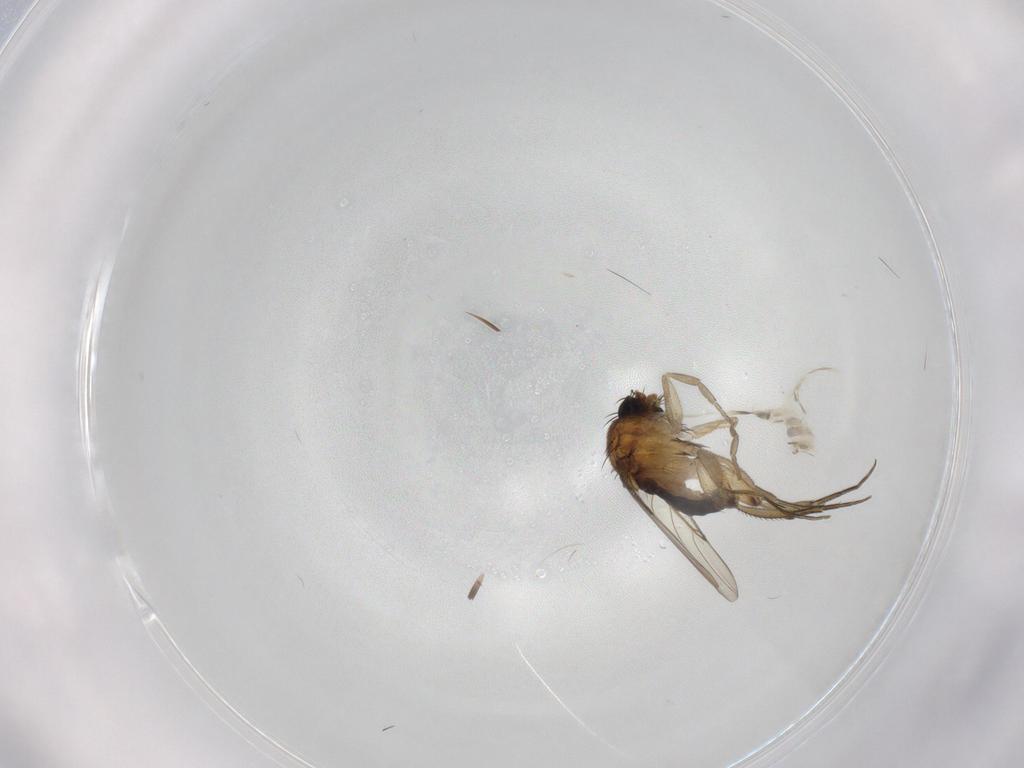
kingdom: Animalia
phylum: Arthropoda
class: Insecta
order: Diptera
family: Phoridae
